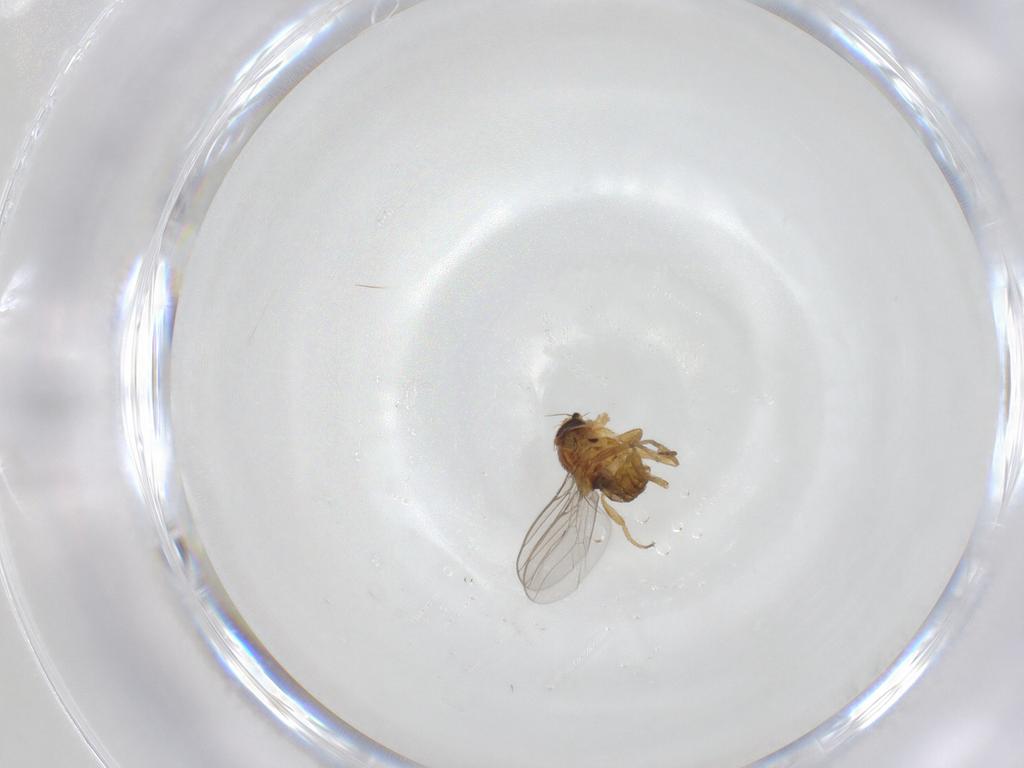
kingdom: Animalia
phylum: Arthropoda
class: Insecta
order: Diptera
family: Chloropidae
